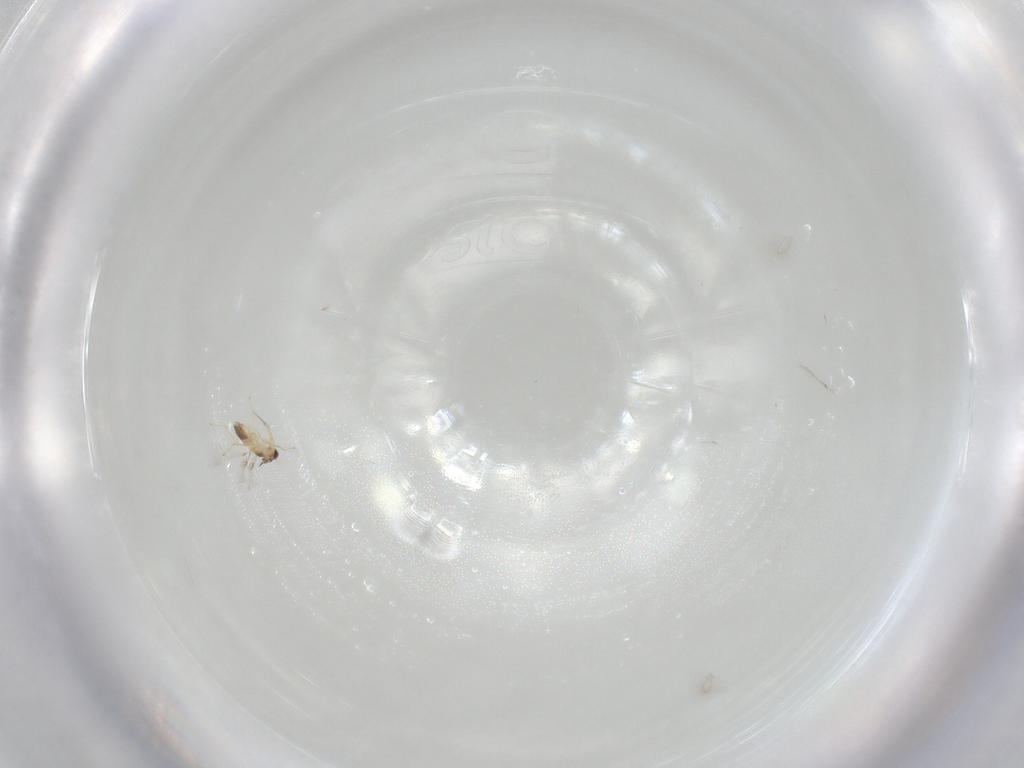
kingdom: Animalia
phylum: Arthropoda
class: Insecta
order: Hymenoptera
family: Mymaridae
